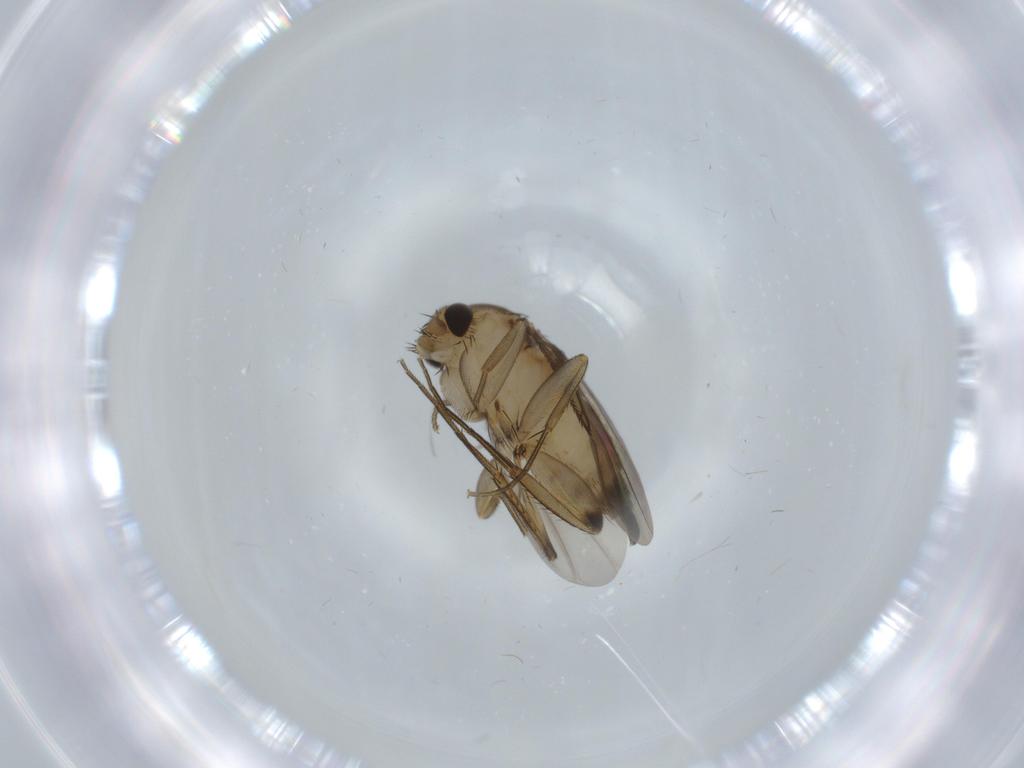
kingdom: Animalia
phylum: Arthropoda
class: Insecta
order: Diptera
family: Phoridae
